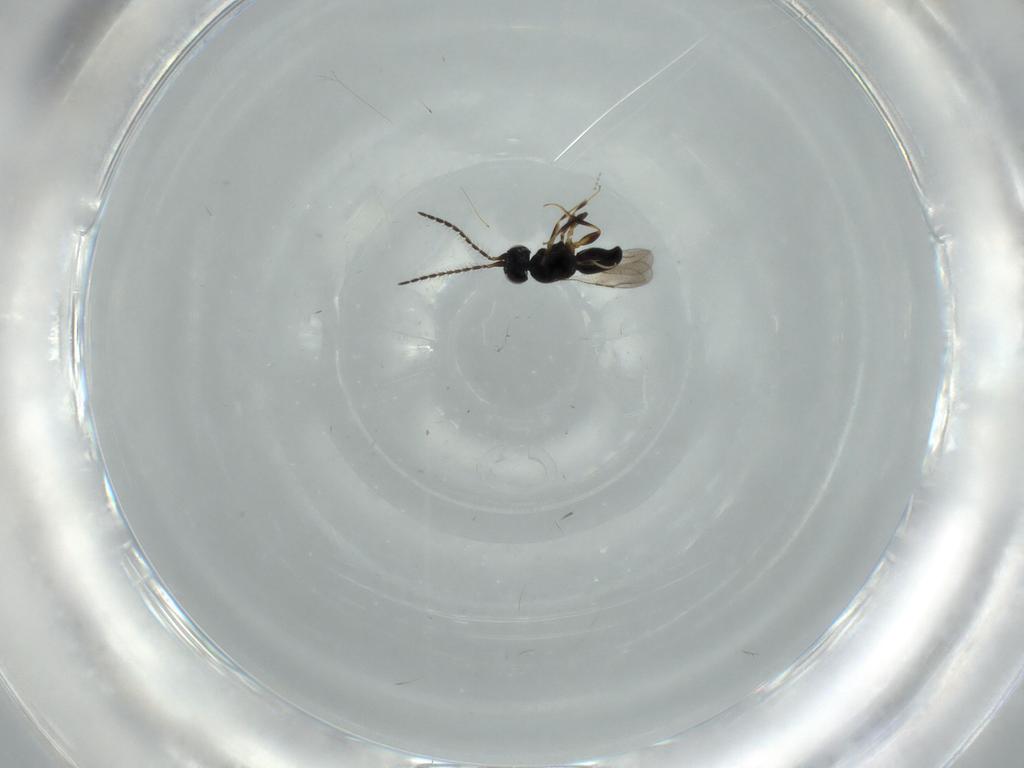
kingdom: Animalia
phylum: Arthropoda
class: Insecta
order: Hymenoptera
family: Ceraphronidae
